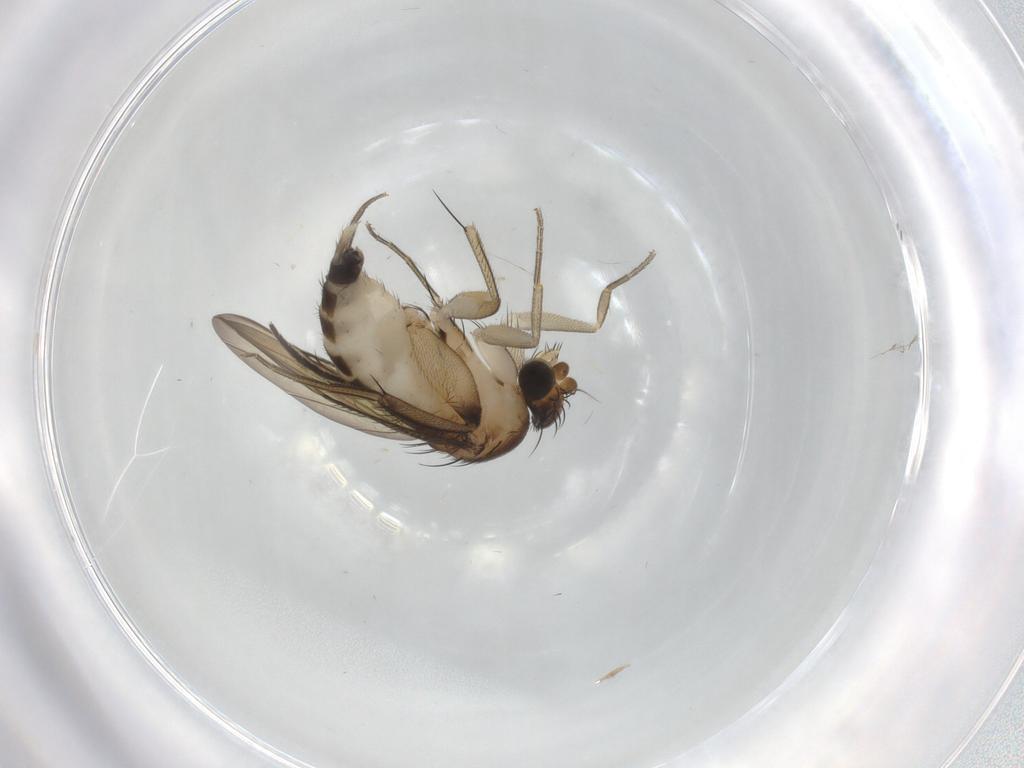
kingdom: Animalia
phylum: Arthropoda
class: Insecta
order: Diptera
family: Phoridae
